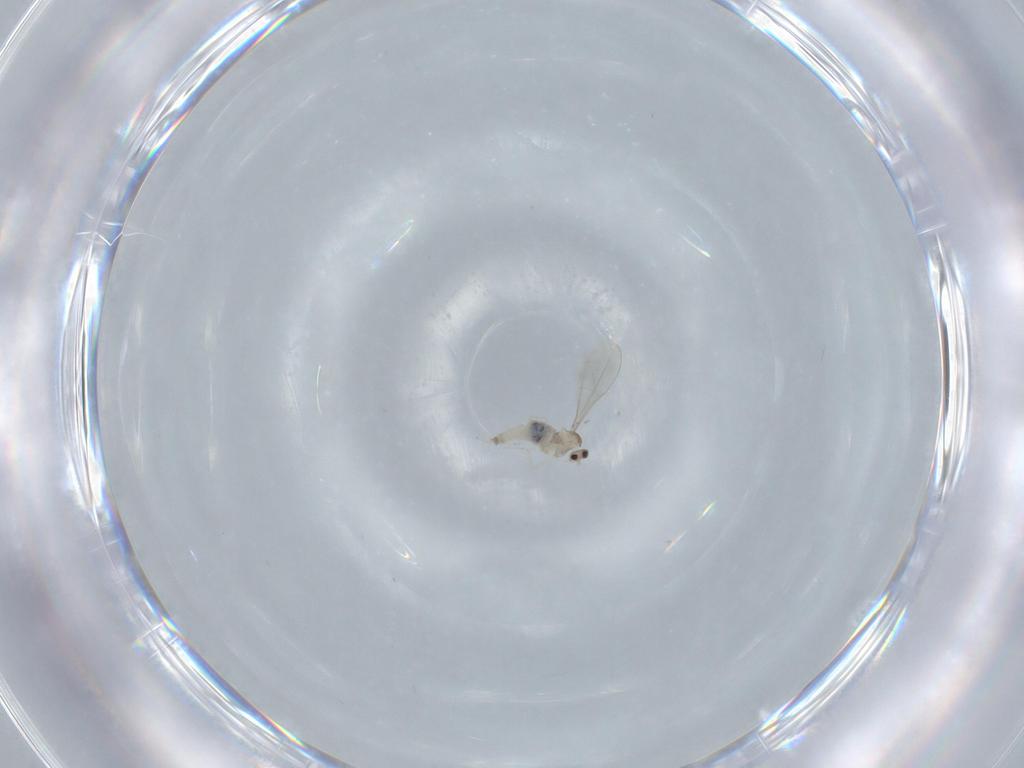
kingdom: Animalia
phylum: Arthropoda
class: Insecta
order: Diptera
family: Cecidomyiidae
